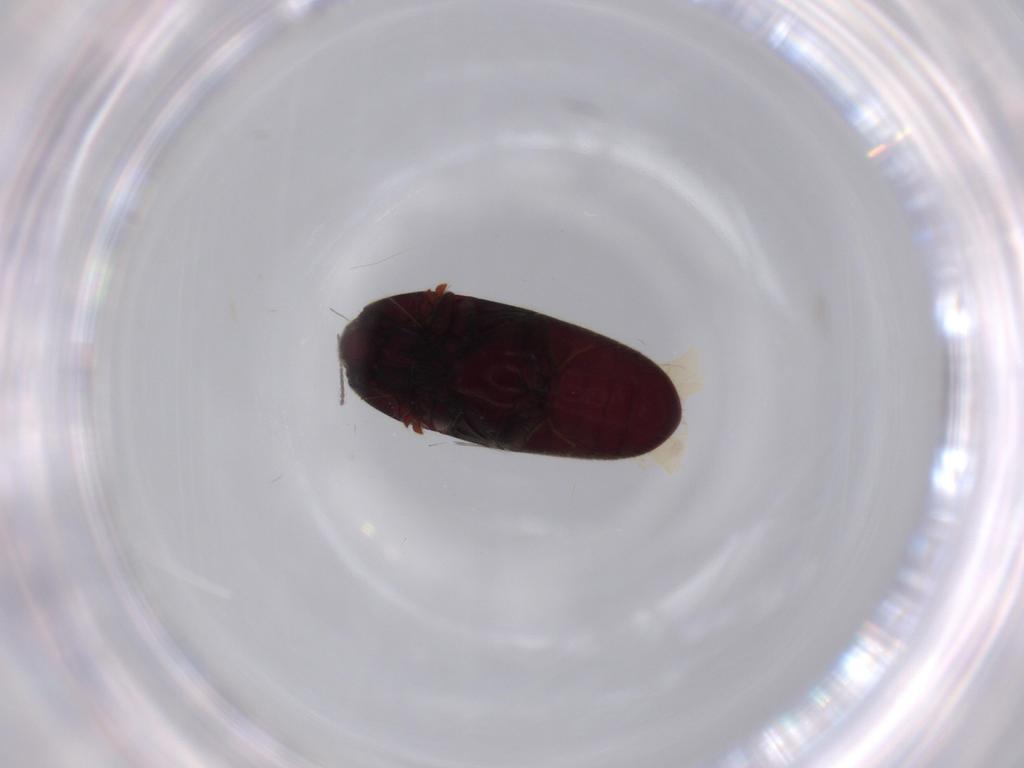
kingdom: Animalia
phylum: Arthropoda
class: Insecta
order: Coleoptera
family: Throscidae
